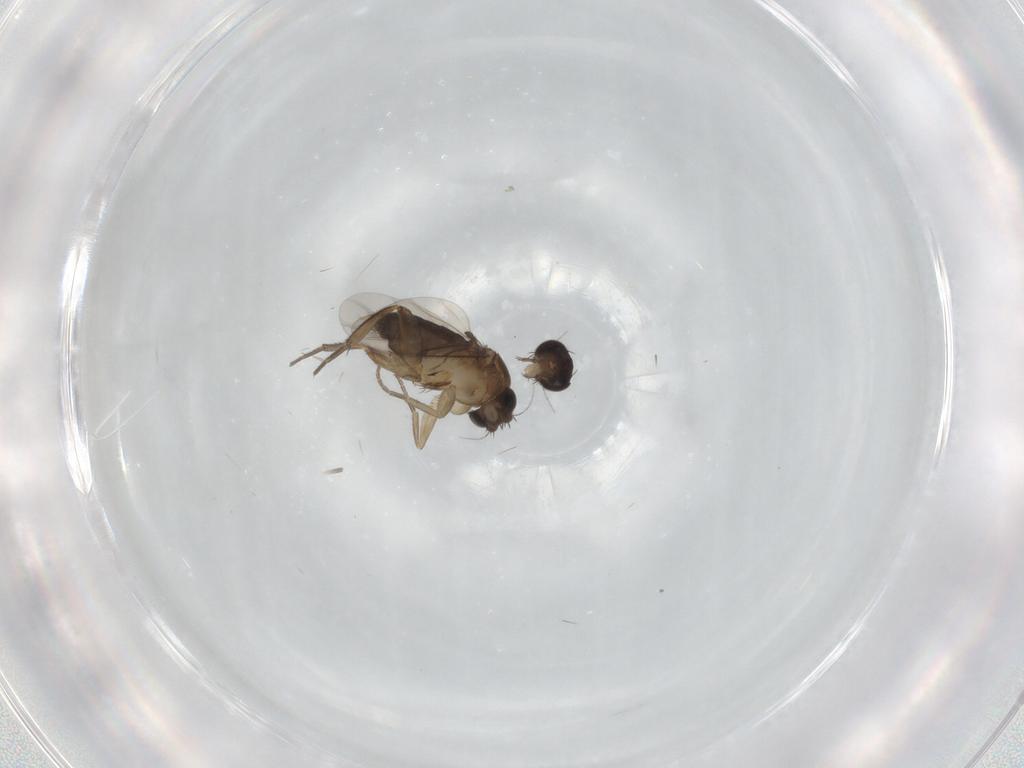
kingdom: Animalia
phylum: Arthropoda
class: Insecta
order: Diptera
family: Phoridae
